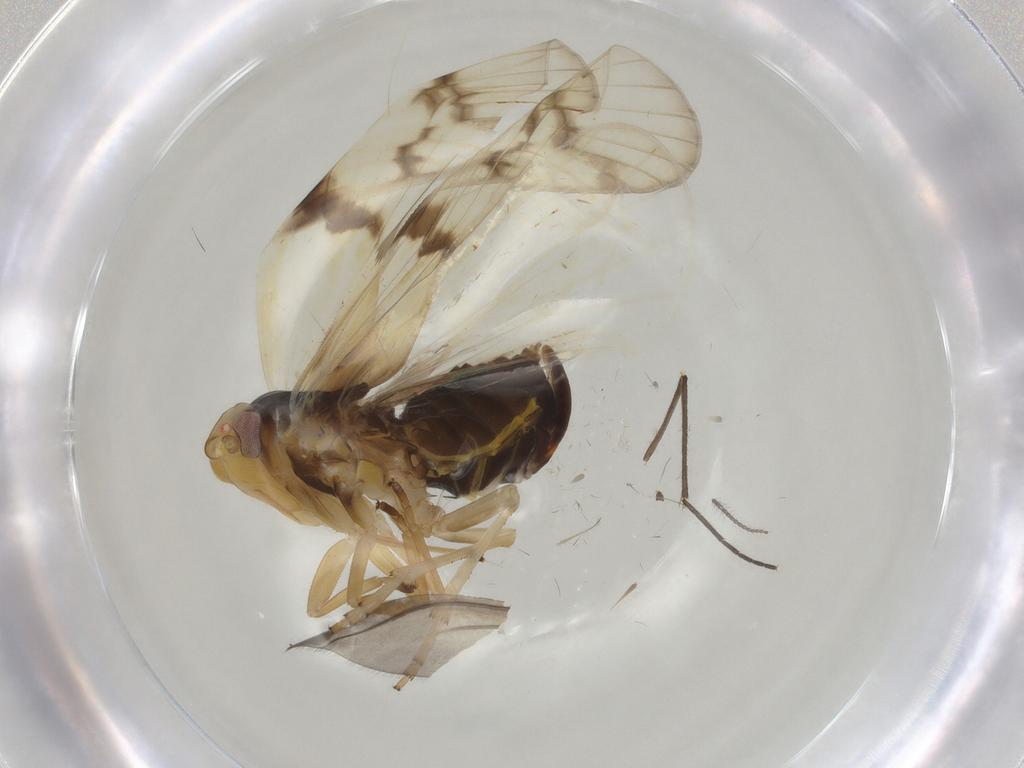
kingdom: Animalia
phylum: Arthropoda
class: Insecta
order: Hemiptera
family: Cixiidae
